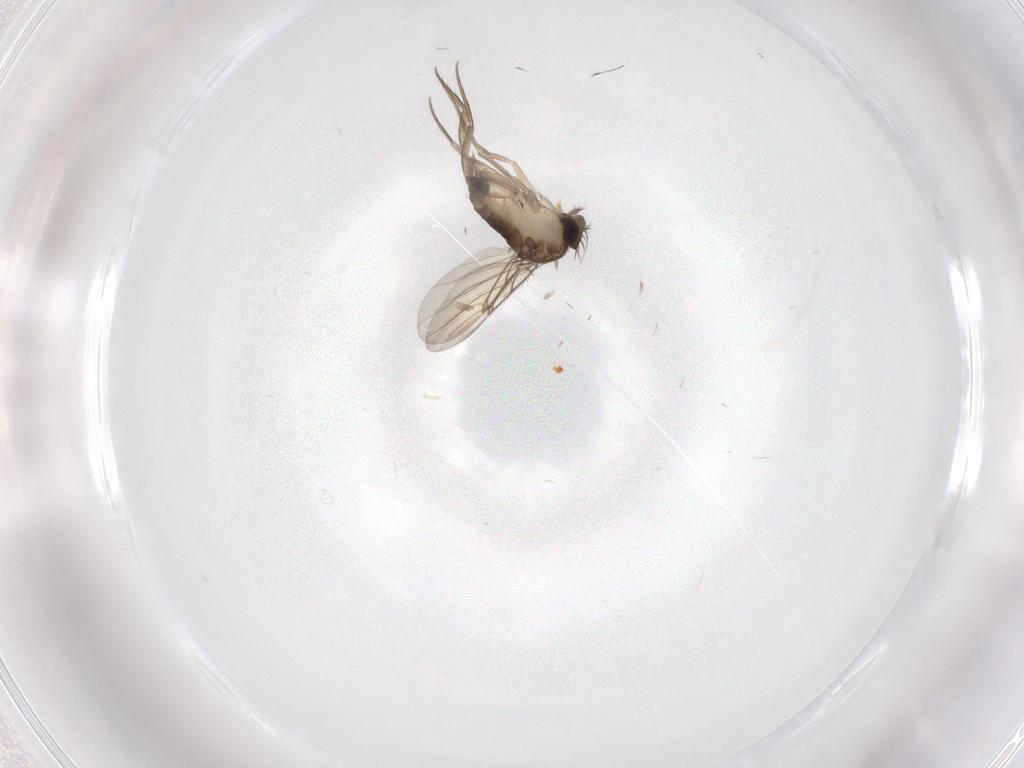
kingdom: Animalia
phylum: Arthropoda
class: Insecta
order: Diptera
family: Phoridae
